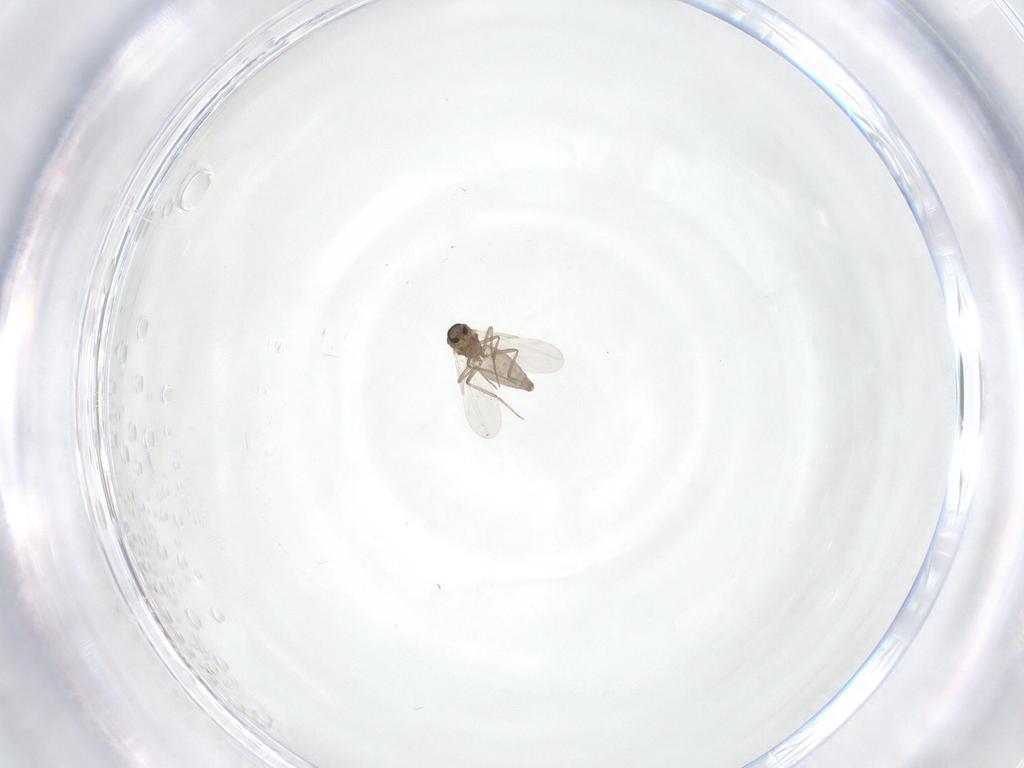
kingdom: Animalia
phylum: Arthropoda
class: Insecta
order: Diptera
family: Ceratopogonidae
